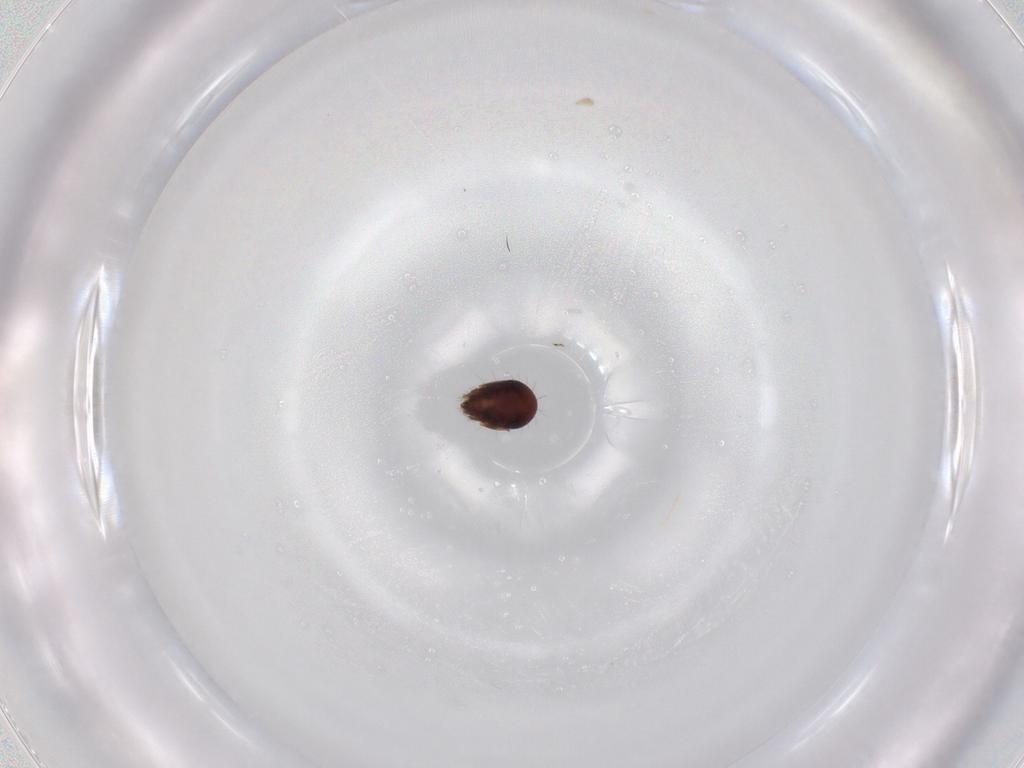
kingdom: Animalia
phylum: Arthropoda
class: Arachnida
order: Sarcoptiformes
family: Humerobatidae
